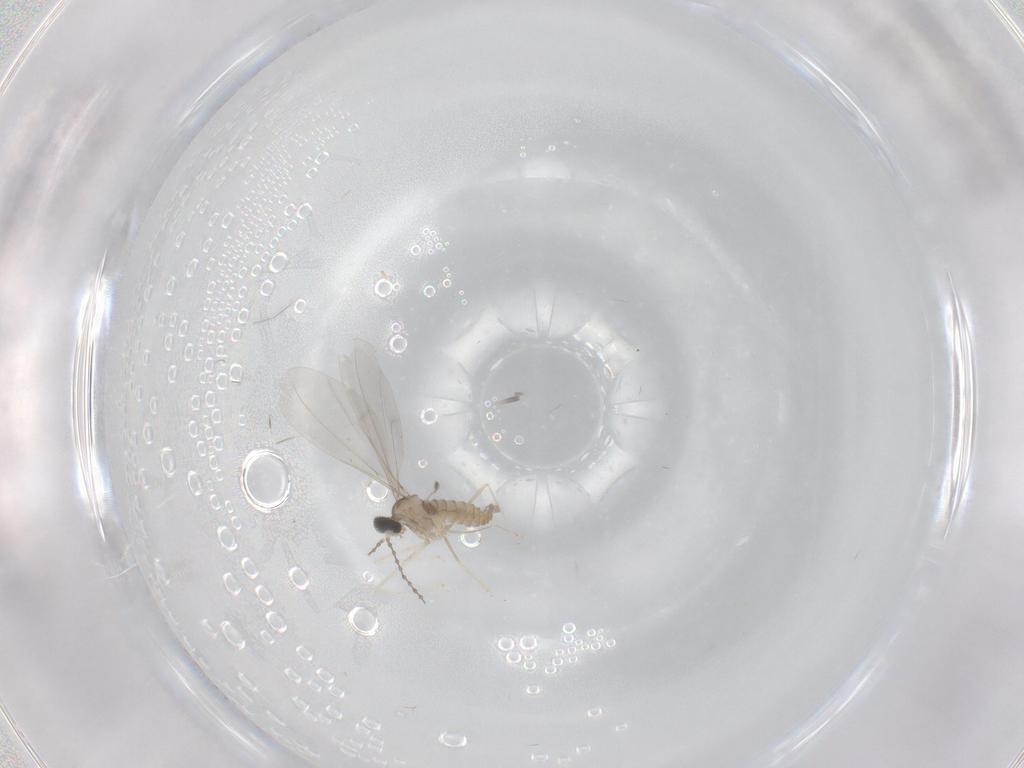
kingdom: Animalia
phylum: Arthropoda
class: Insecta
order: Diptera
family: Cecidomyiidae
